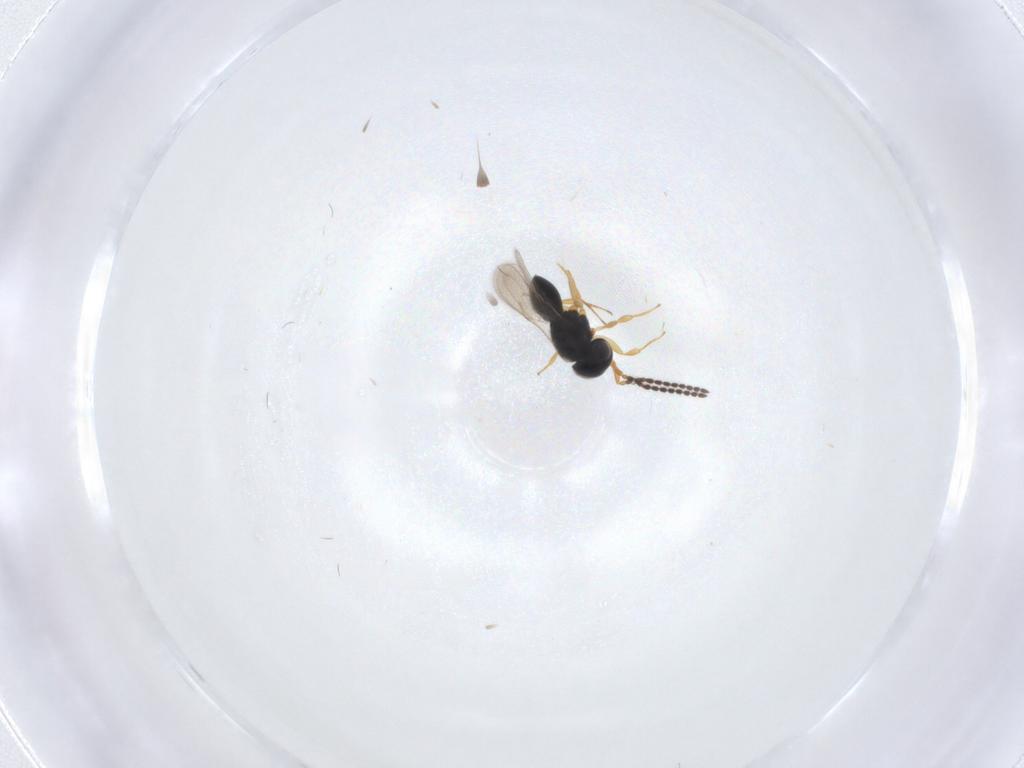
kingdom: Animalia
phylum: Arthropoda
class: Insecta
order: Hymenoptera
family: Scelionidae
